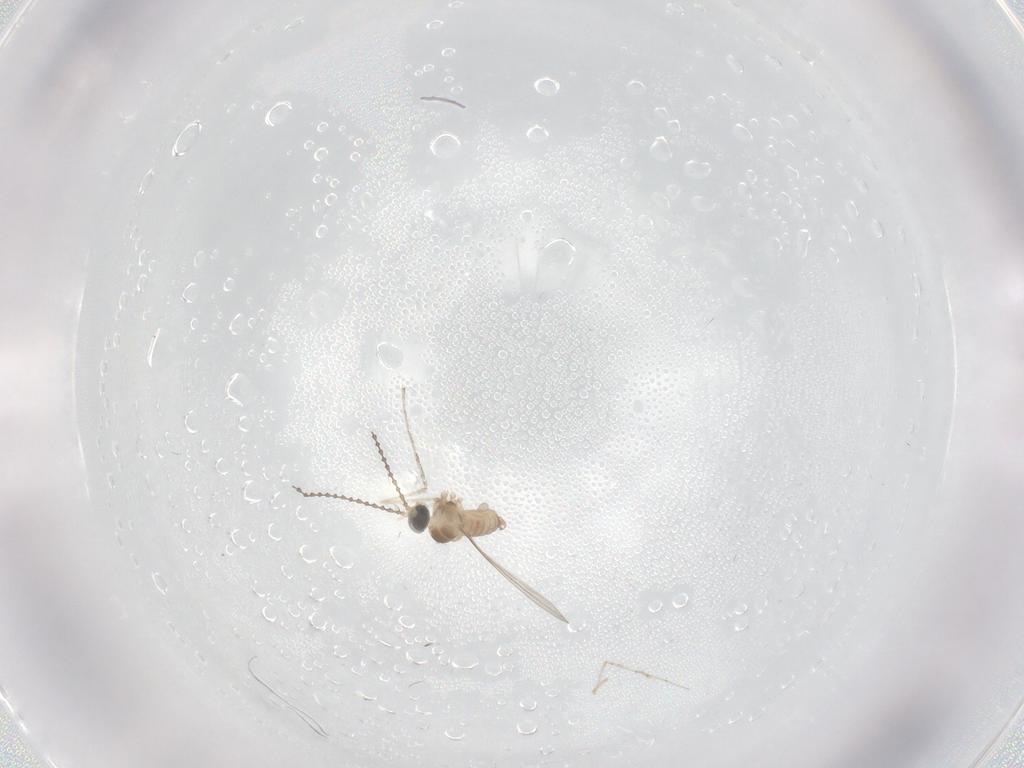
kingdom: Animalia
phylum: Arthropoda
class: Insecta
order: Diptera
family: Cecidomyiidae
